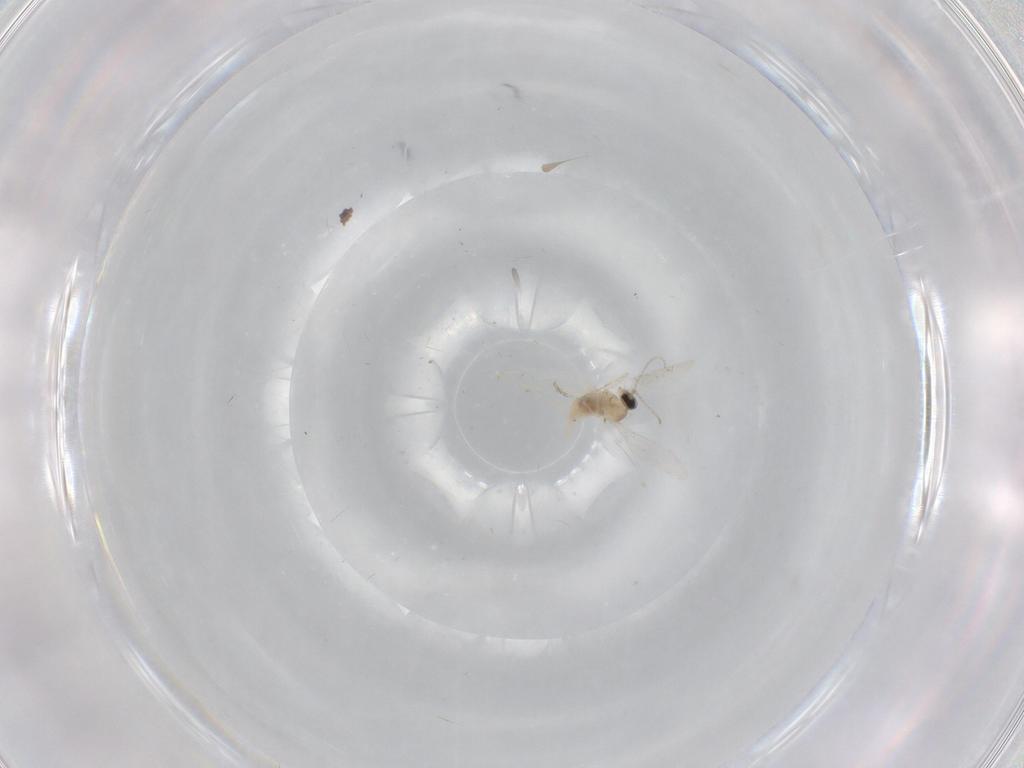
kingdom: Animalia
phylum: Arthropoda
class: Insecta
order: Diptera
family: Cecidomyiidae
